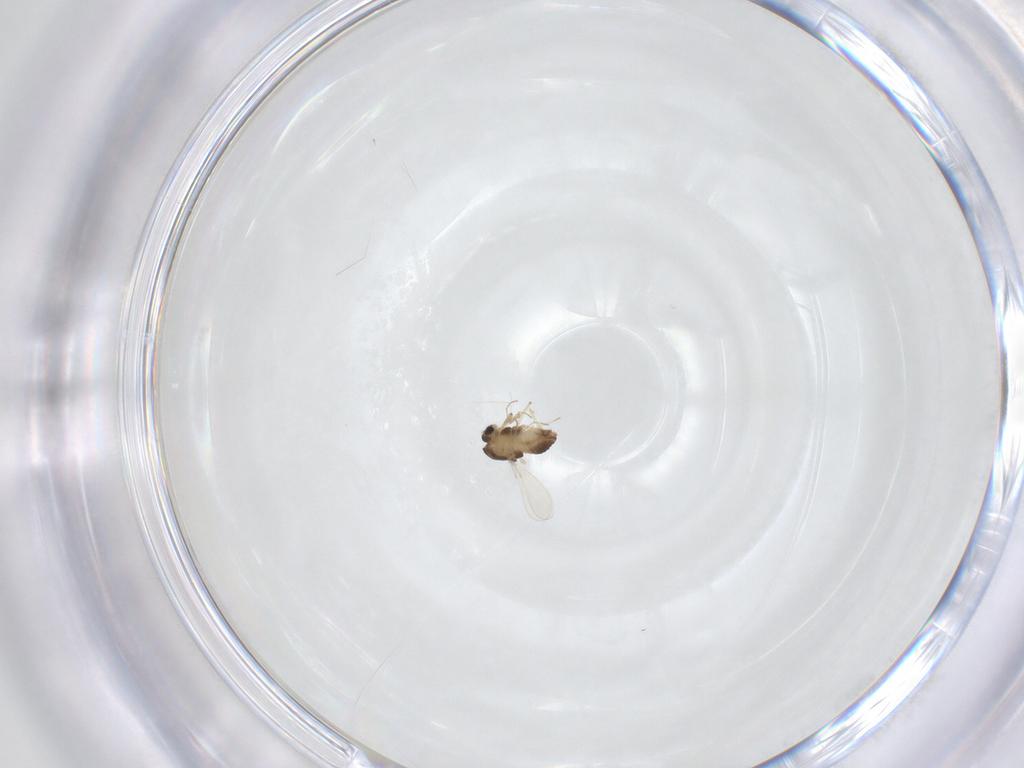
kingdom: Animalia
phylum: Arthropoda
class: Insecta
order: Diptera
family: Chironomidae
